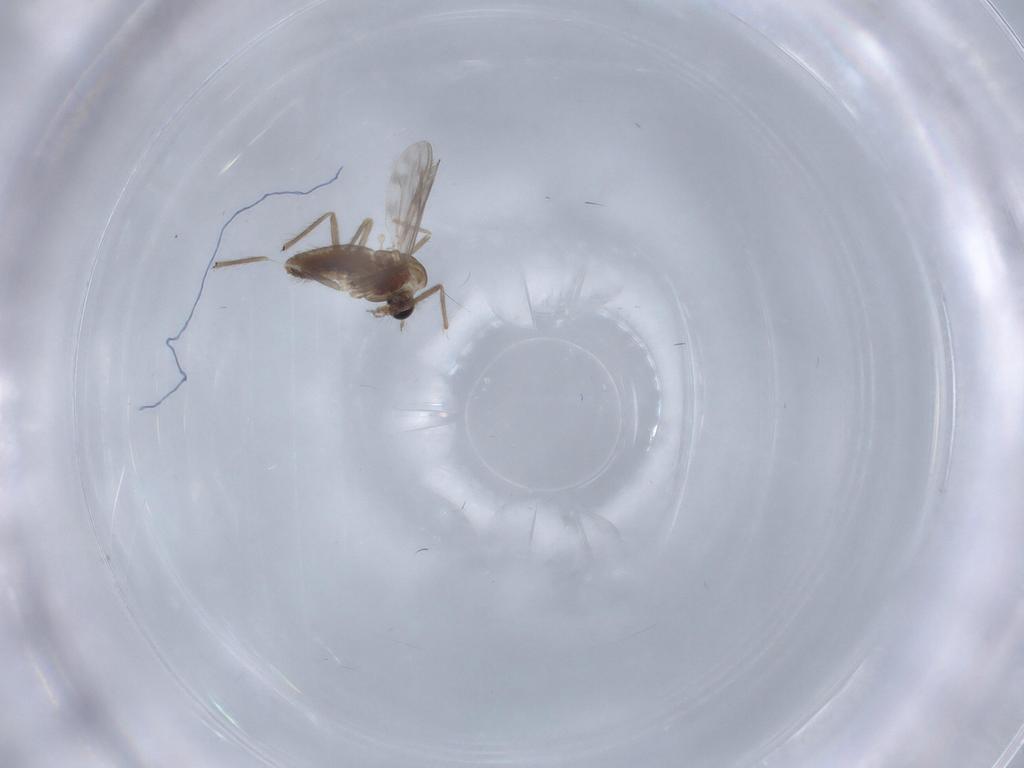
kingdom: Animalia
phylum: Arthropoda
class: Insecta
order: Diptera
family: Chironomidae
